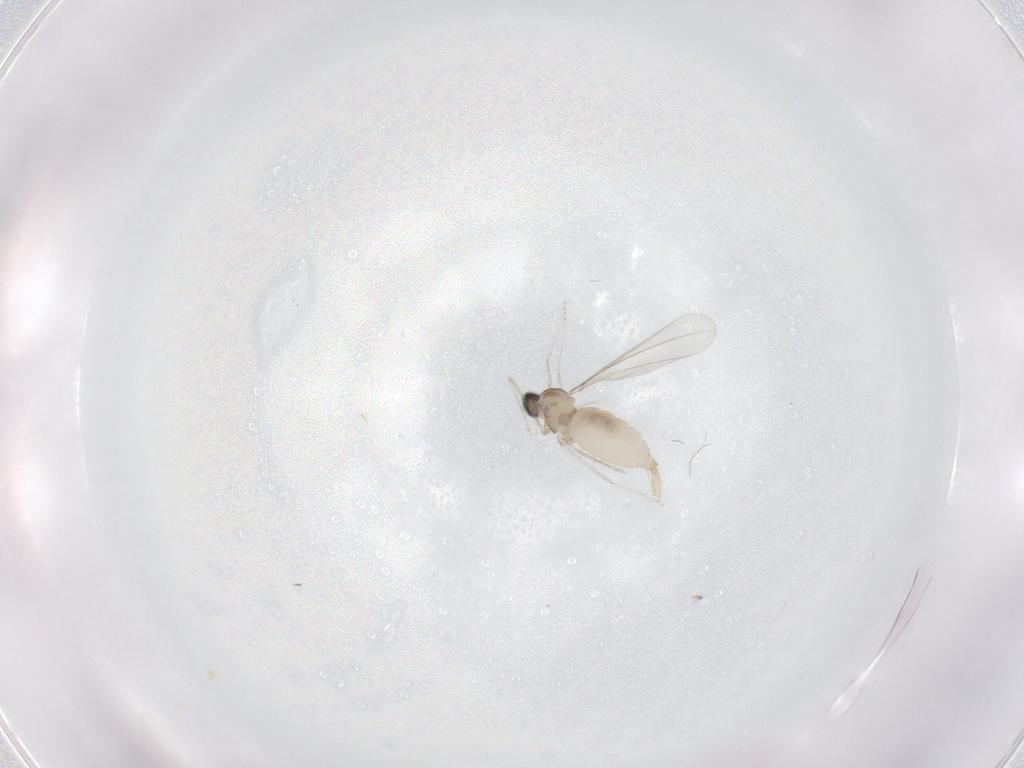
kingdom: Animalia
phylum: Arthropoda
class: Insecta
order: Diptera
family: Cecidomyiidae
